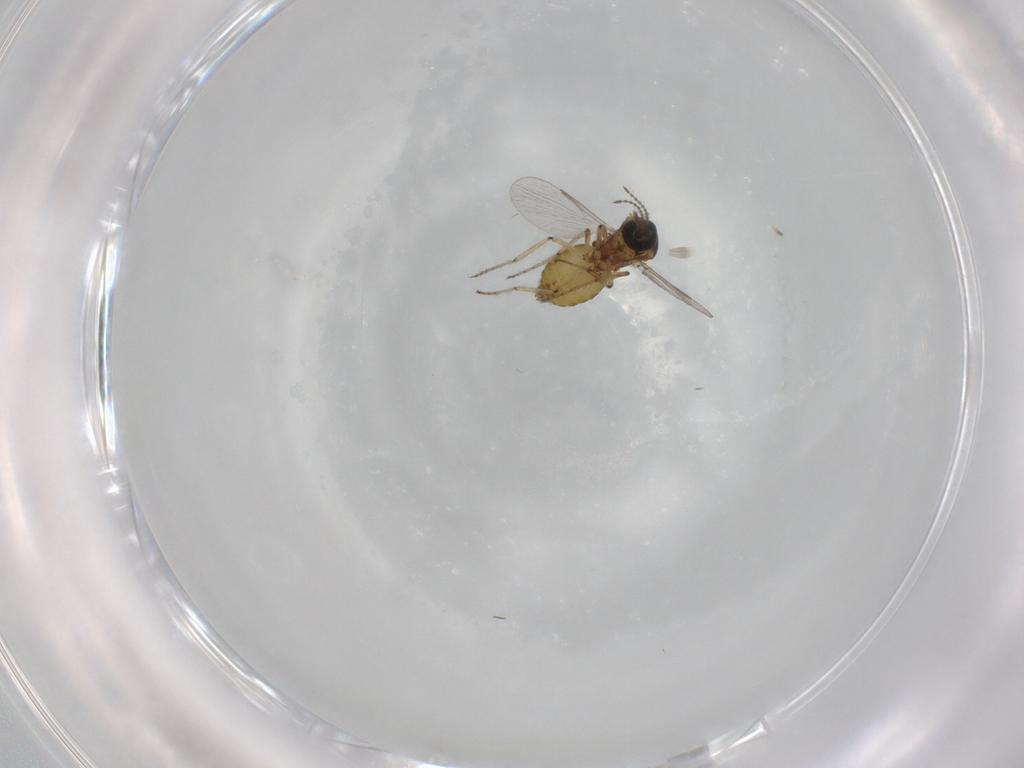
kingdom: Animalia
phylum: Arthropoda
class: Insecta
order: Diptera
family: Ceratopogonidae
